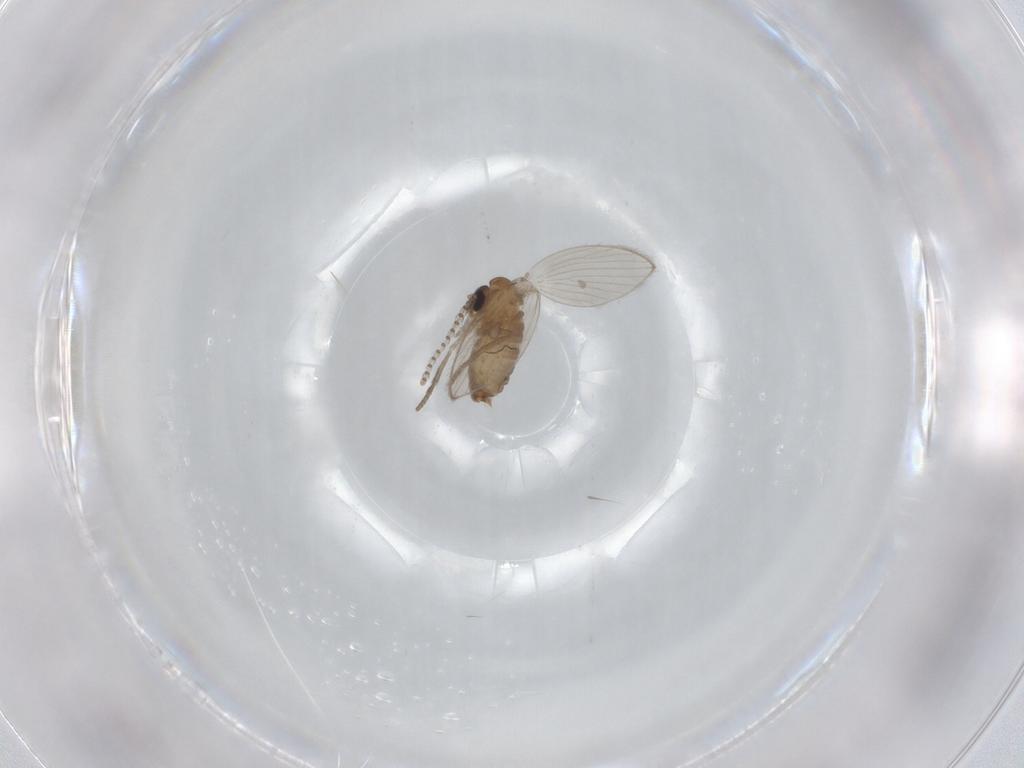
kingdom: Animalia
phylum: Arthropoda
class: Insecta
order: Diptera
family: Psychodidae
